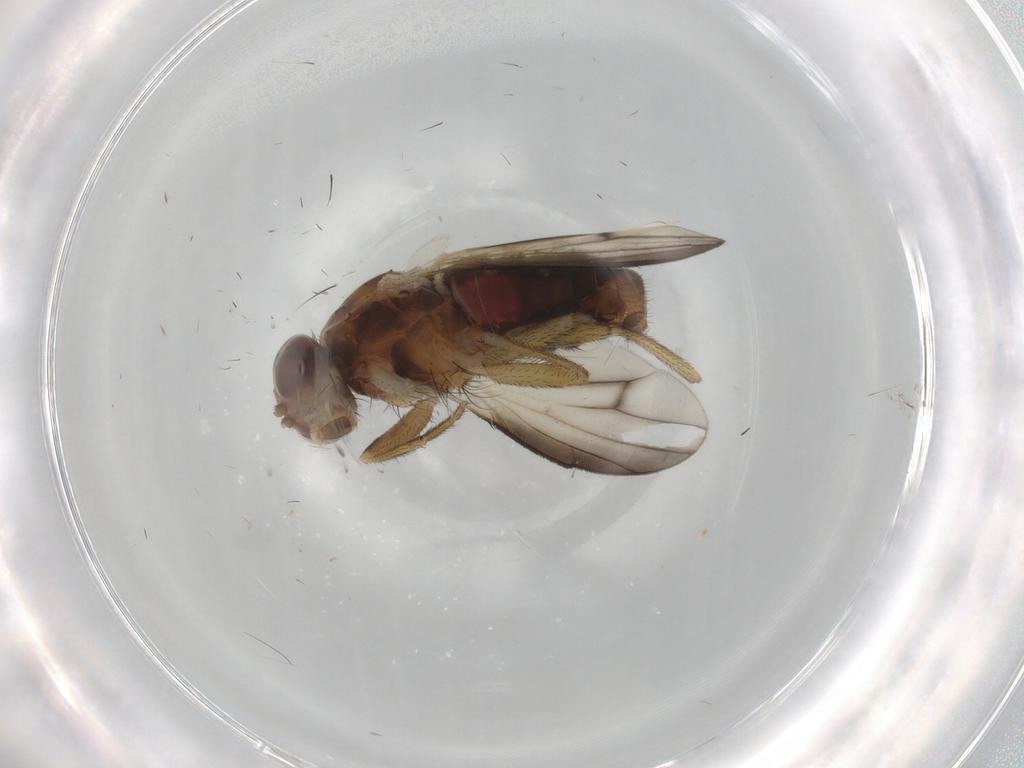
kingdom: Animalia
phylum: Arthropoda
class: Insecta
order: Diptera
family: Heleomyzidae
